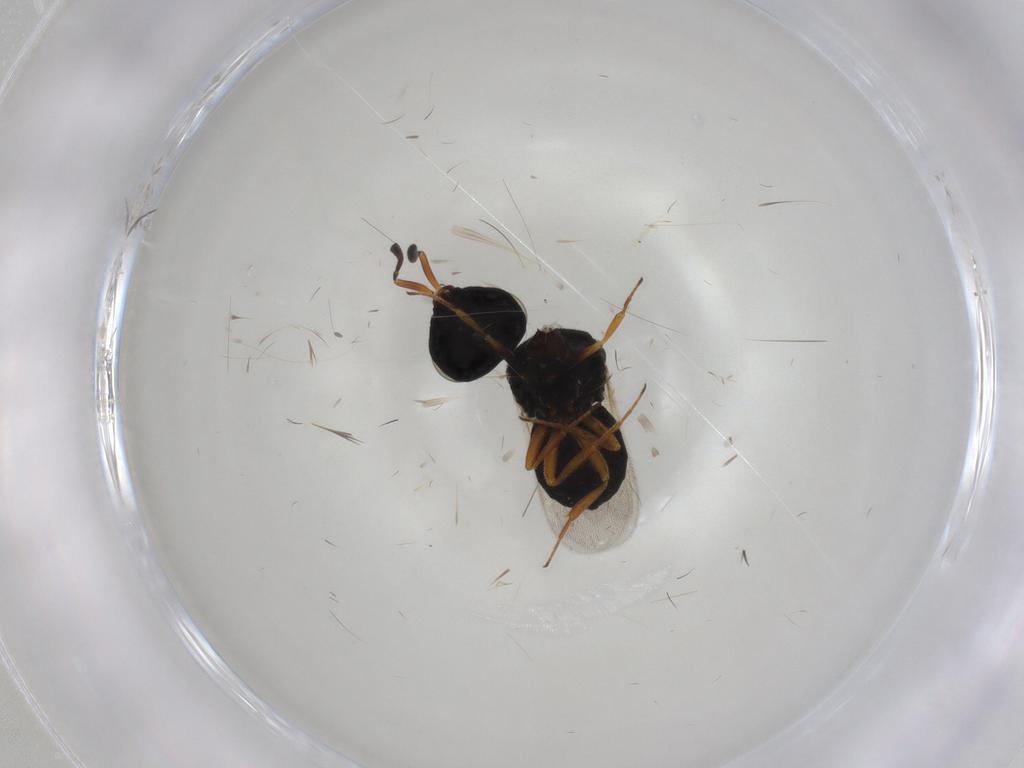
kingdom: Animalia
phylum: Arthropoda
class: Insecta
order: Hymenoptera
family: Scelionidae
